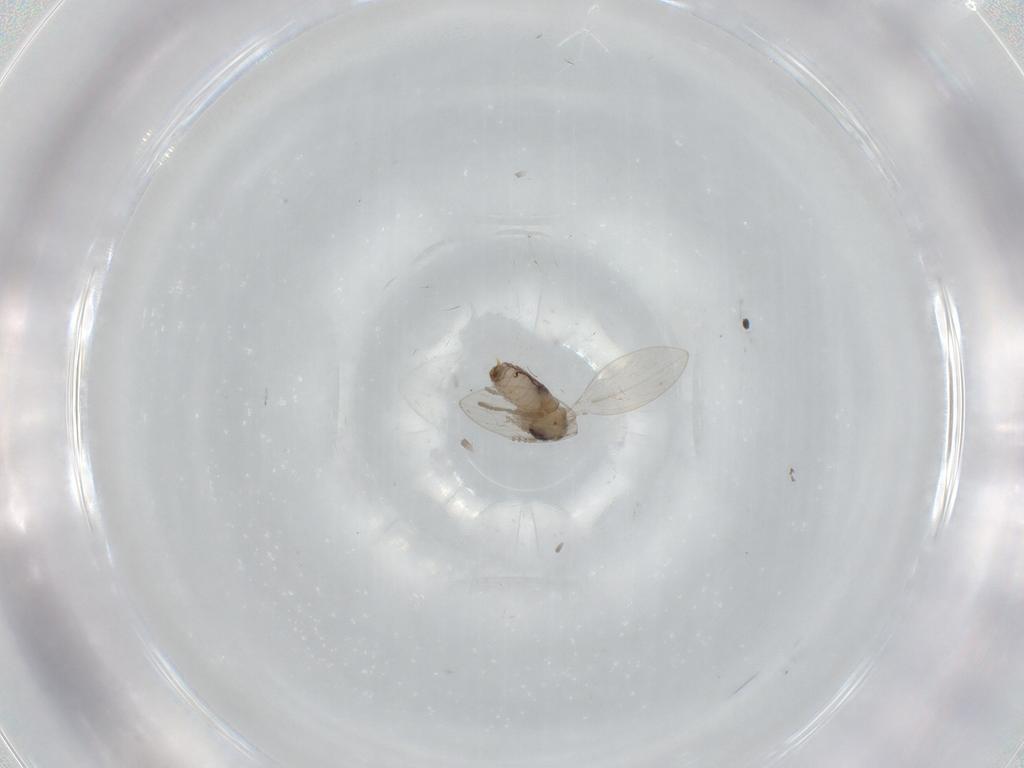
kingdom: Animalia
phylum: Arthropoda
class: Insecta
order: Diptera
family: Psychodidae
